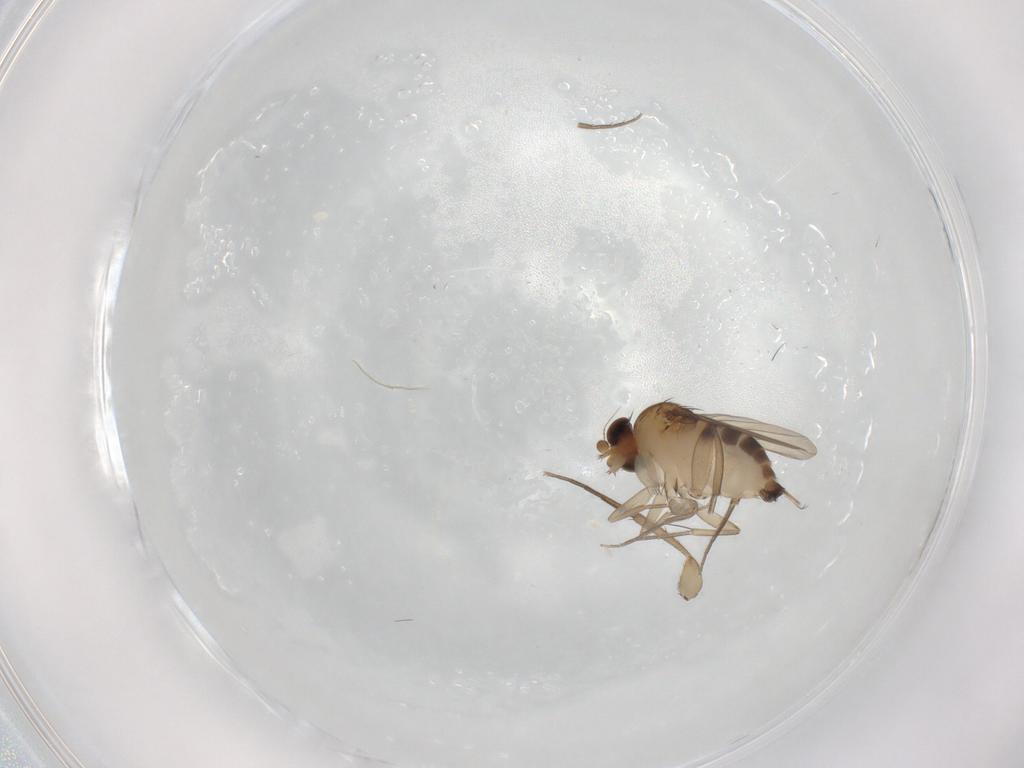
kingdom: Animalia
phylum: Arthropoda
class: Insecta
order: Diptera
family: Phoridae
